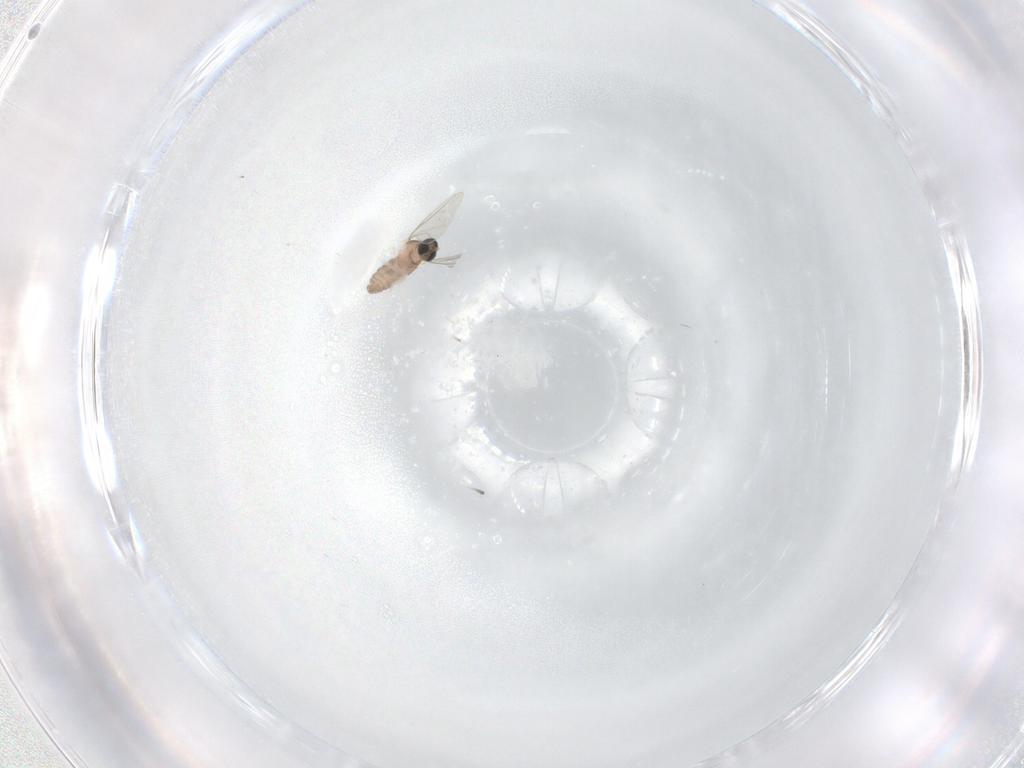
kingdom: Animalia
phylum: Arthropoda
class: Insecta
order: Diptera
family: Cecidomyiidae
